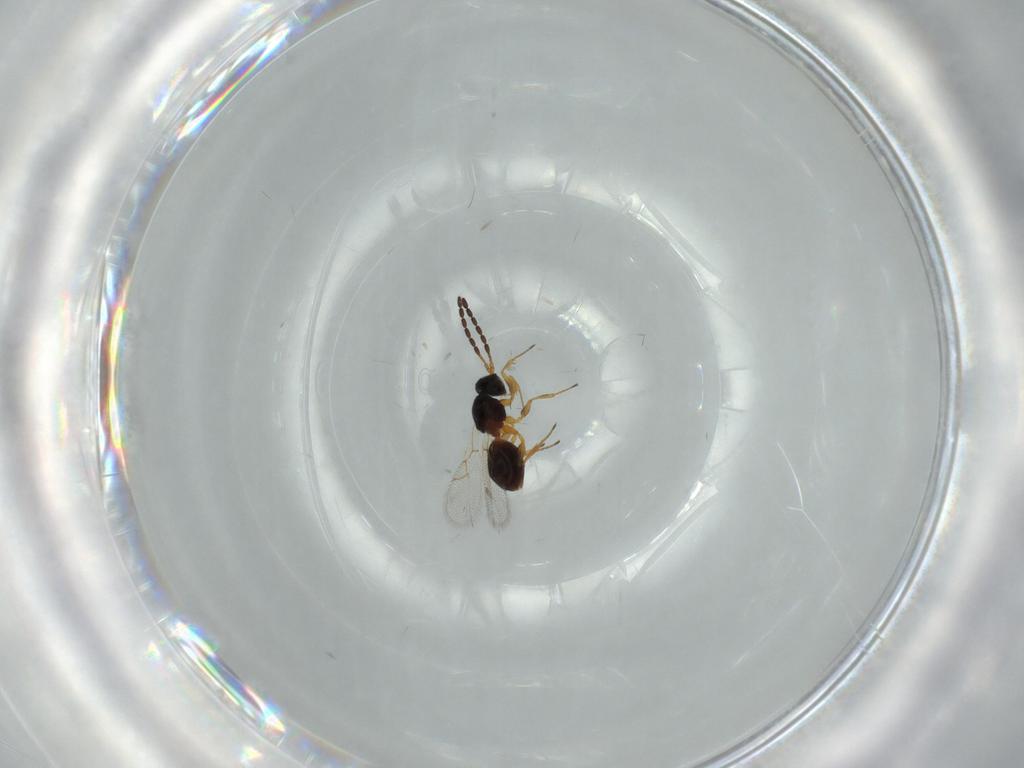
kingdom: Animalia
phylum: Arthropoda
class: Insecta
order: Hymenoptera
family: Figitidae
